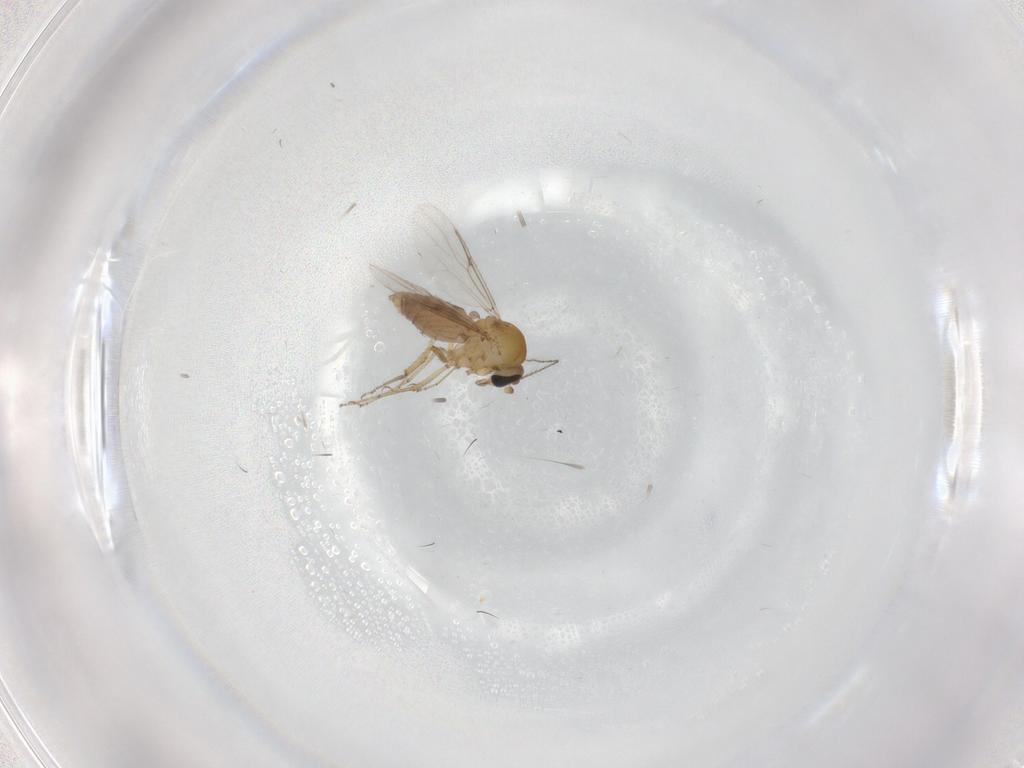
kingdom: Animalia
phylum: Arthropoda
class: Insecta
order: Diptera
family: Ceratopogonidae
